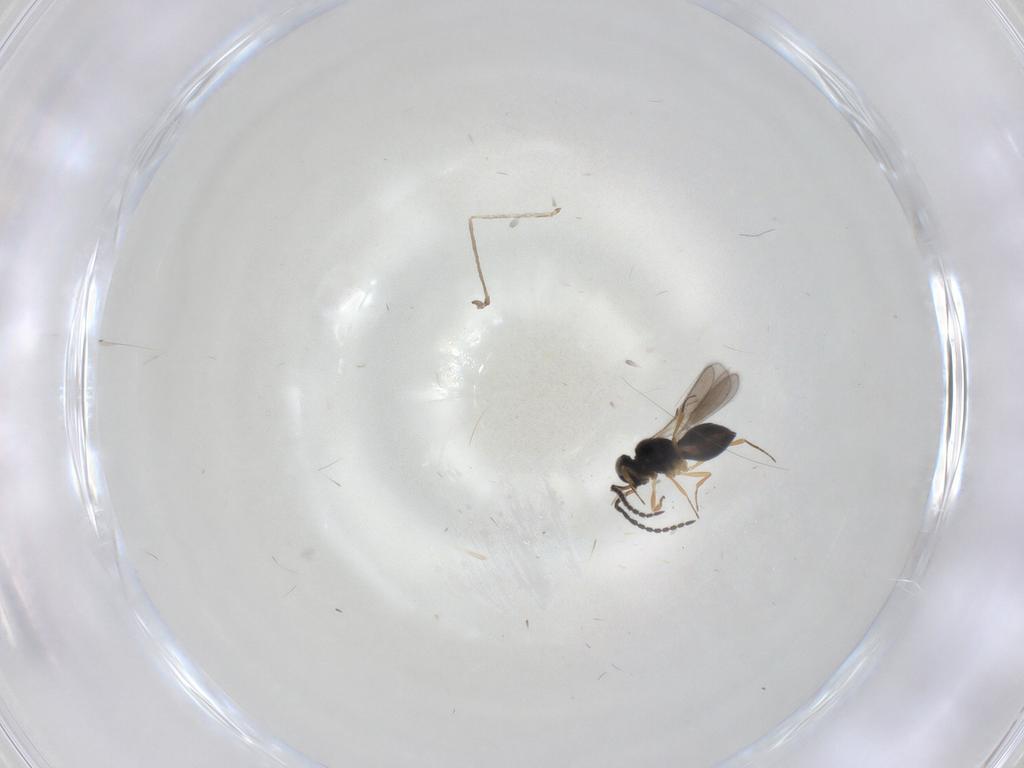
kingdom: Animalia
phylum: Arthropoda
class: Insecta
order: Hymenoptera
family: Scelionidae
